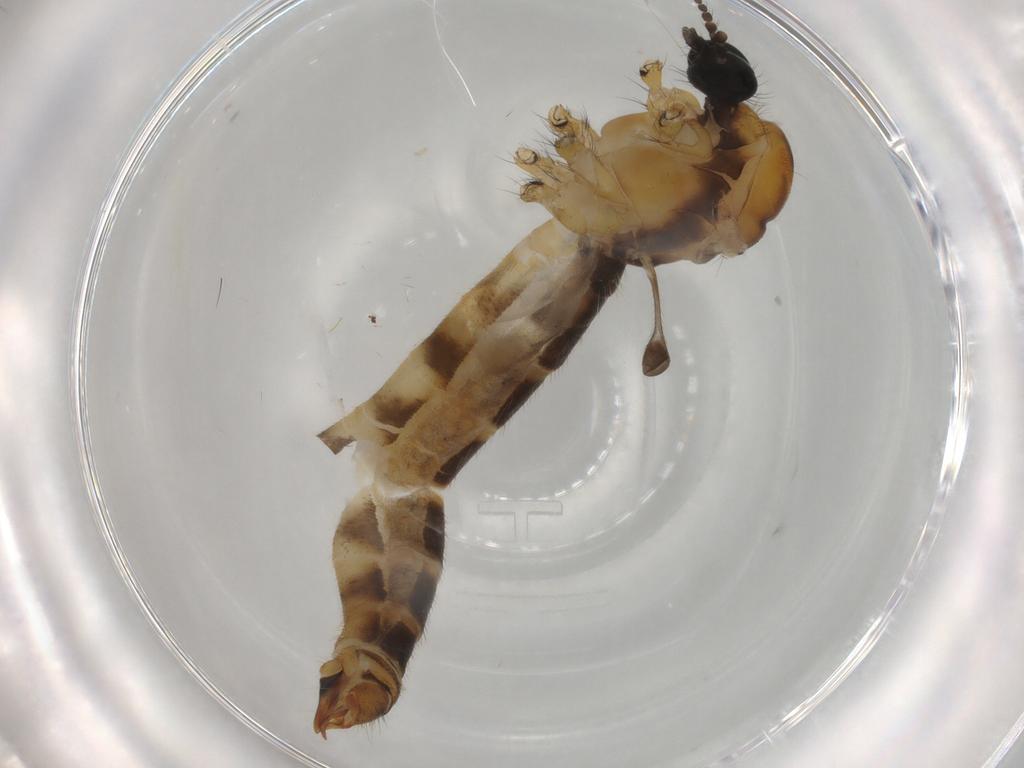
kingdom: Animalia
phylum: Arthropoda
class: Insecta
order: Diptera
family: Limoniidae
